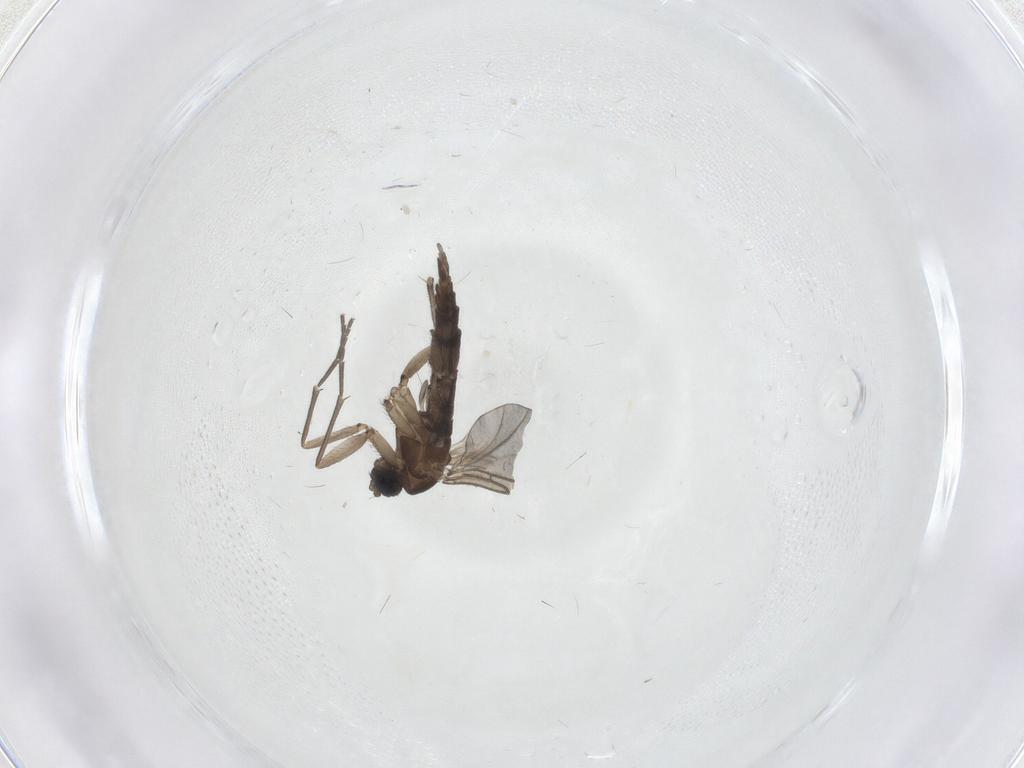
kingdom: Animalia
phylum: Arthropoda
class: Insecta
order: Diptera
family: Sciaridae
